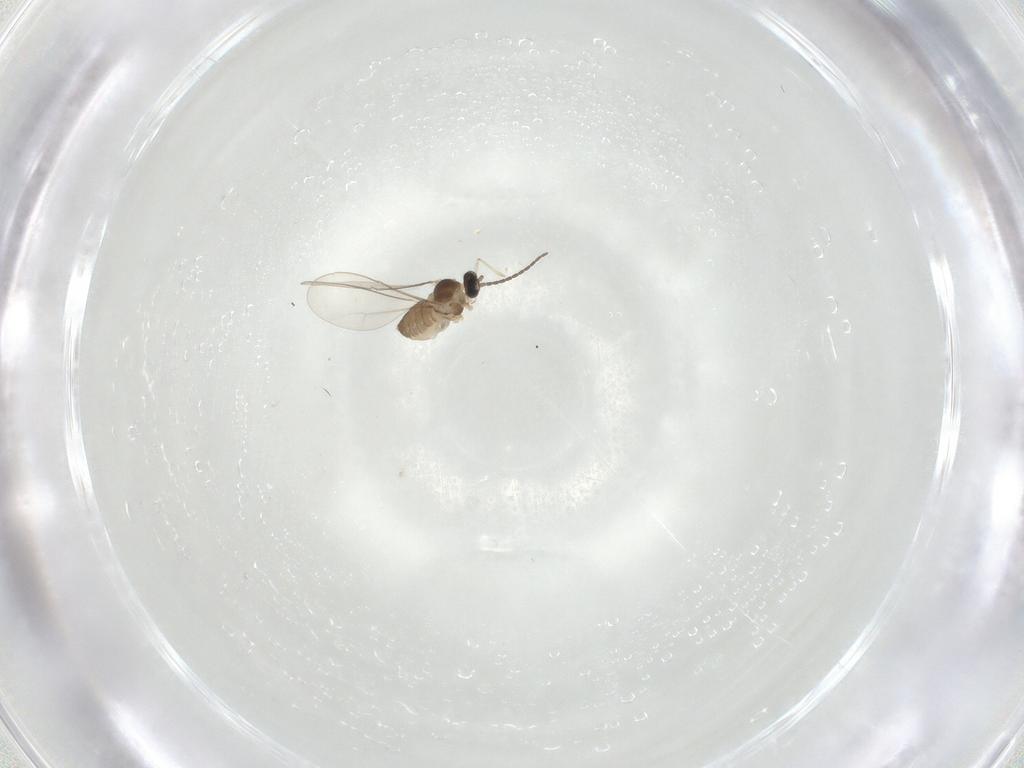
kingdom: Animalia
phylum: Arthropoda
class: Insecta
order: Diptera
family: Cecidomyiidae
